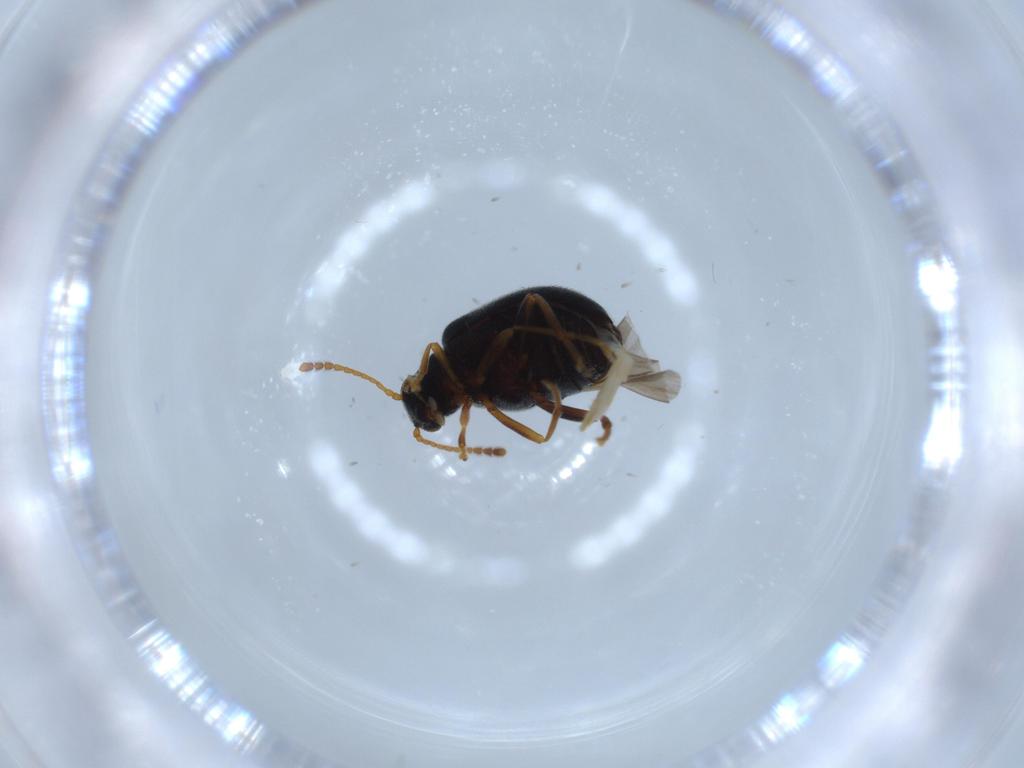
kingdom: Animalia
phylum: Arthropoda
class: Insecta
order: Coleoptera
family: Aderidae
